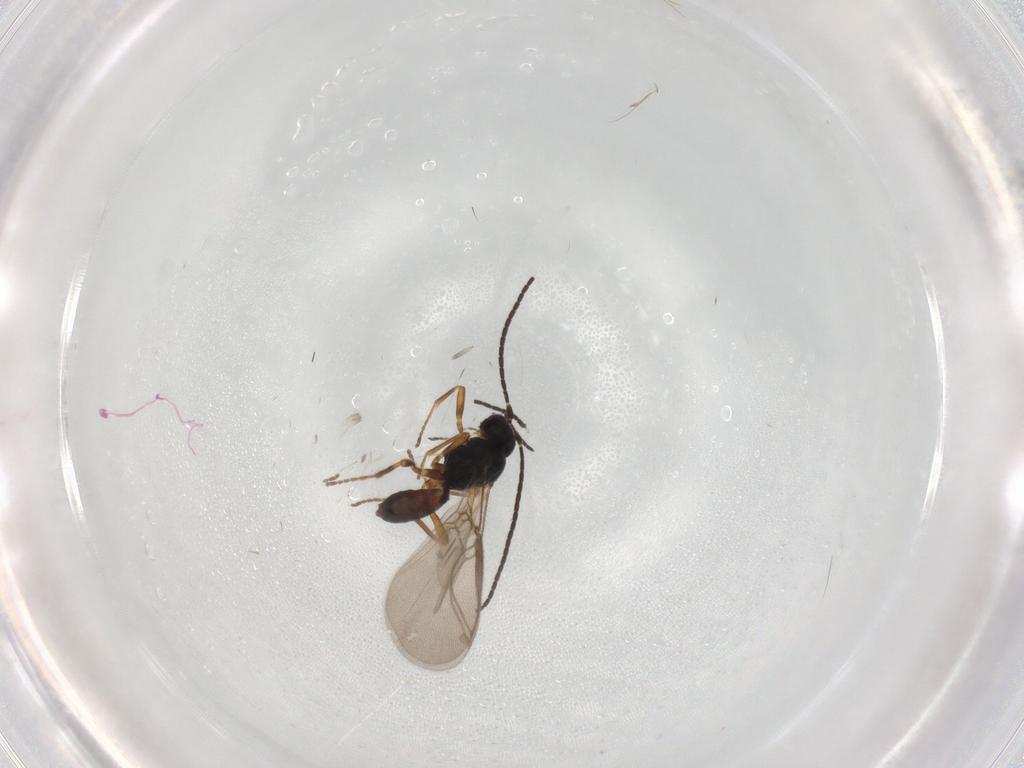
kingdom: Animalia
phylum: Arthropoda
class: Insecta
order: Hymenoptera
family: Braconidae
